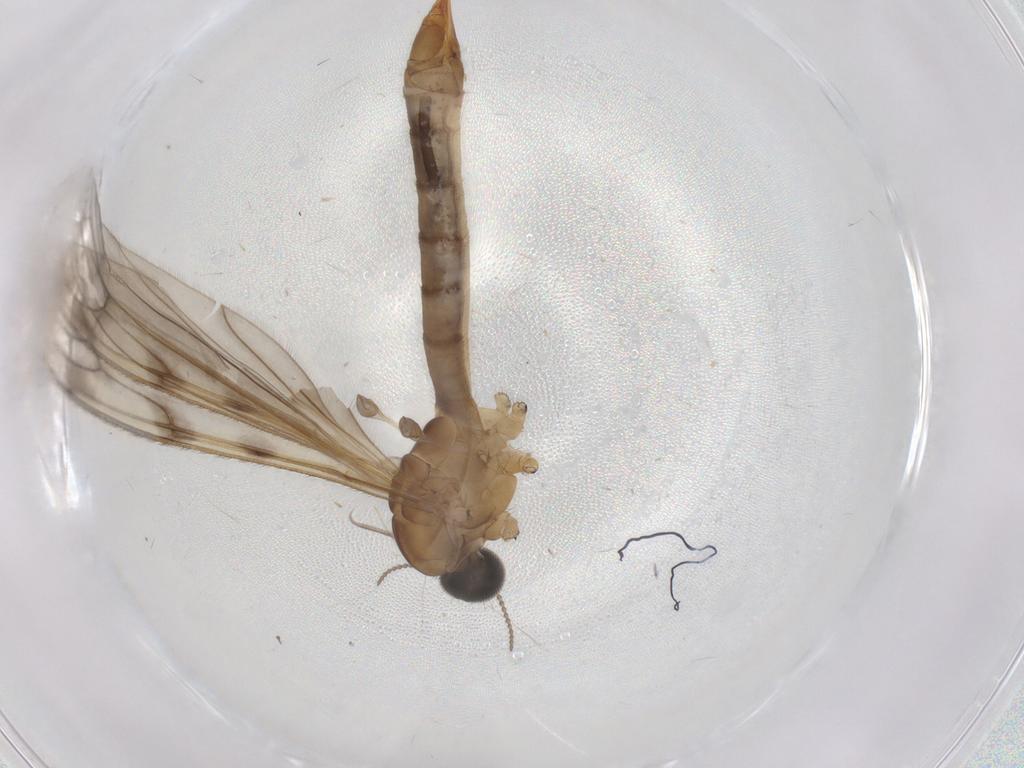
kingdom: Animalia
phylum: Arthropoda
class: Insecta
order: Diptera
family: Limoniidae
